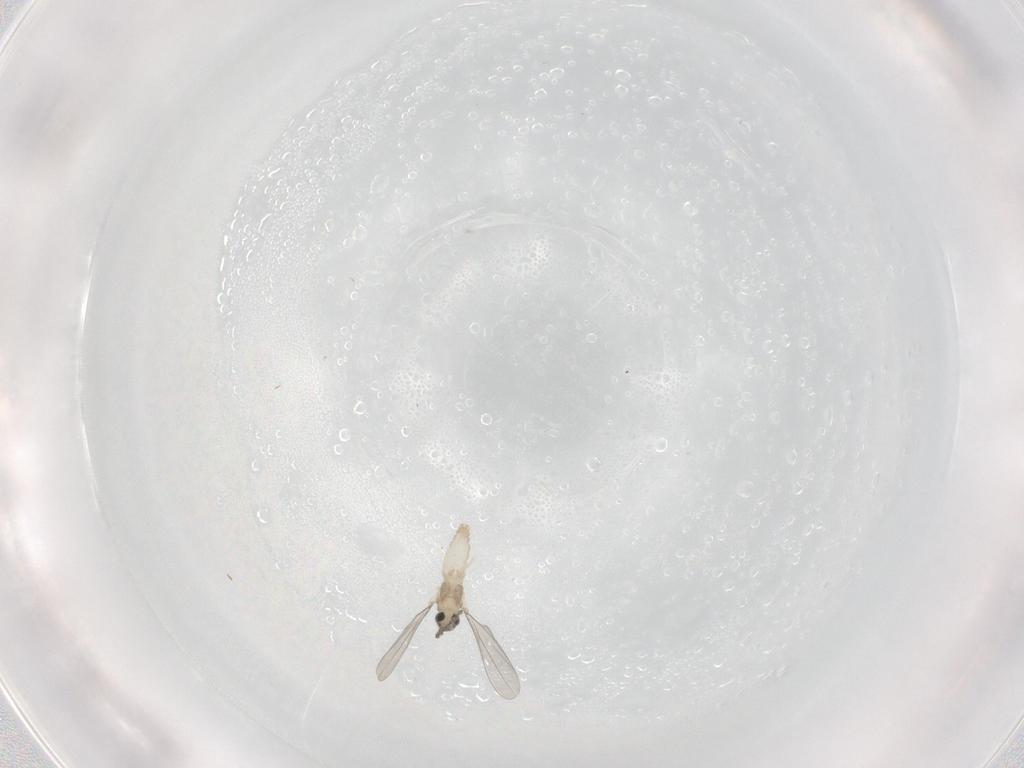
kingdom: Animalia
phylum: Arthropoda
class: Insecta
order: Diptera
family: Cecidomyiidae
